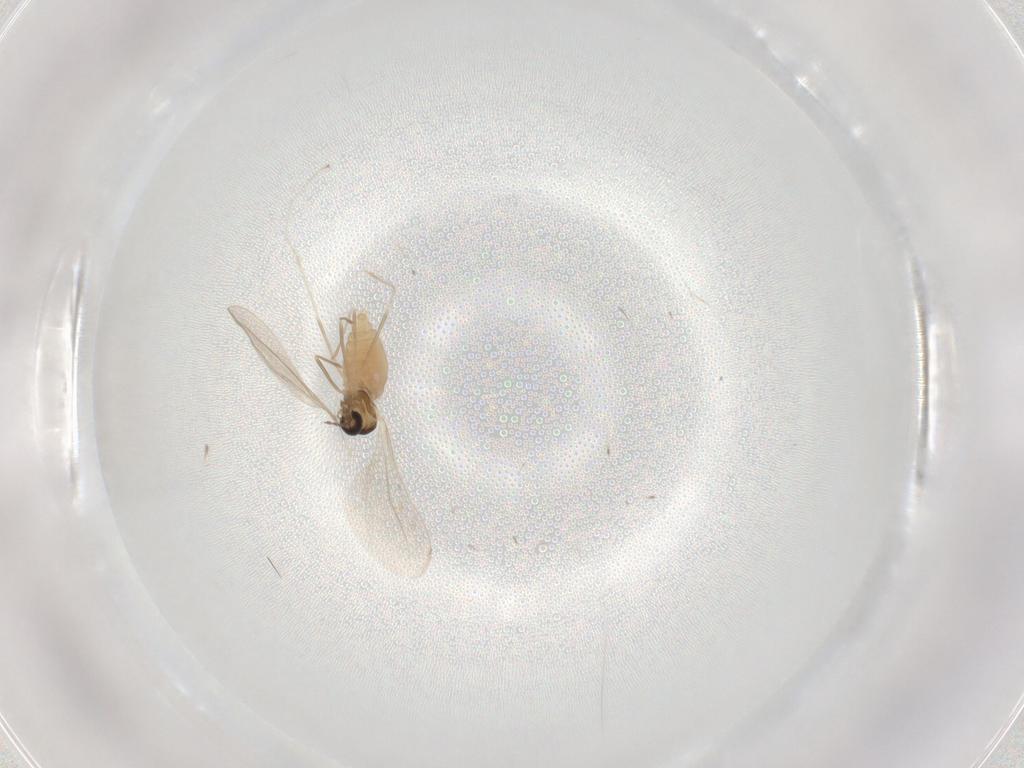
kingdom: Animalia
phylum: Arthropoda
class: Insecta
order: Diptera
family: Cecidomyiidae
